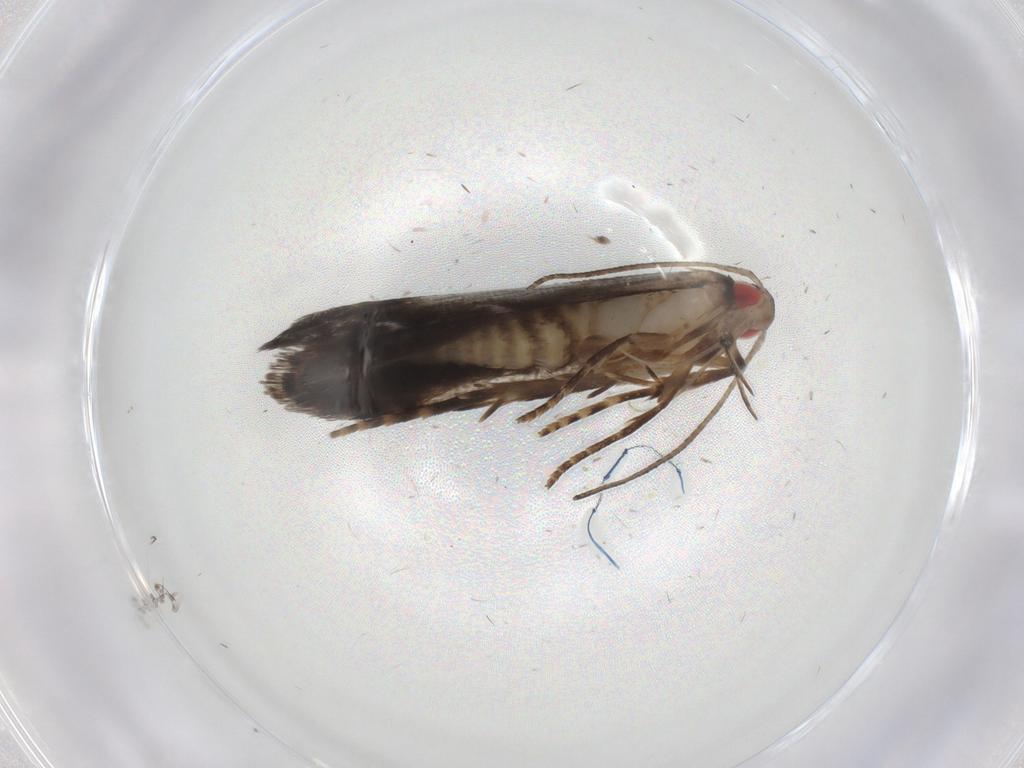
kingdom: Animalia
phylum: Arthropoda
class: Insecta
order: Lepidoptera
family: Gelechiidae
